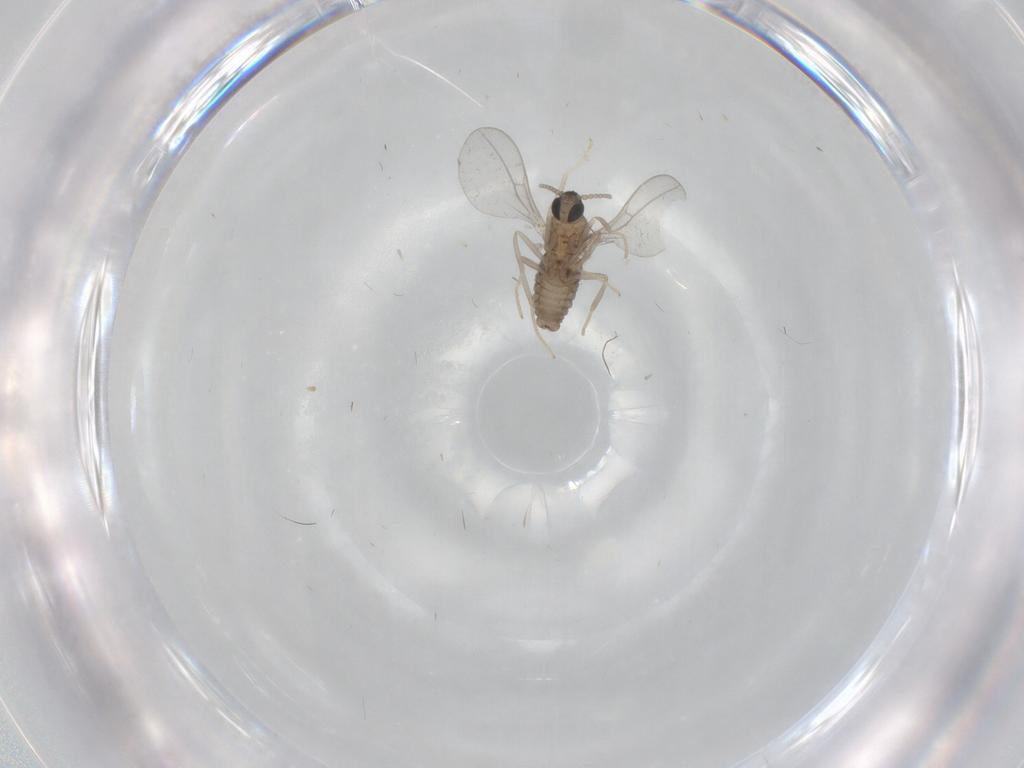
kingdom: Animalia
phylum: Arthropoda
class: Insecta
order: Diptera
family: Cecidomyiidae
